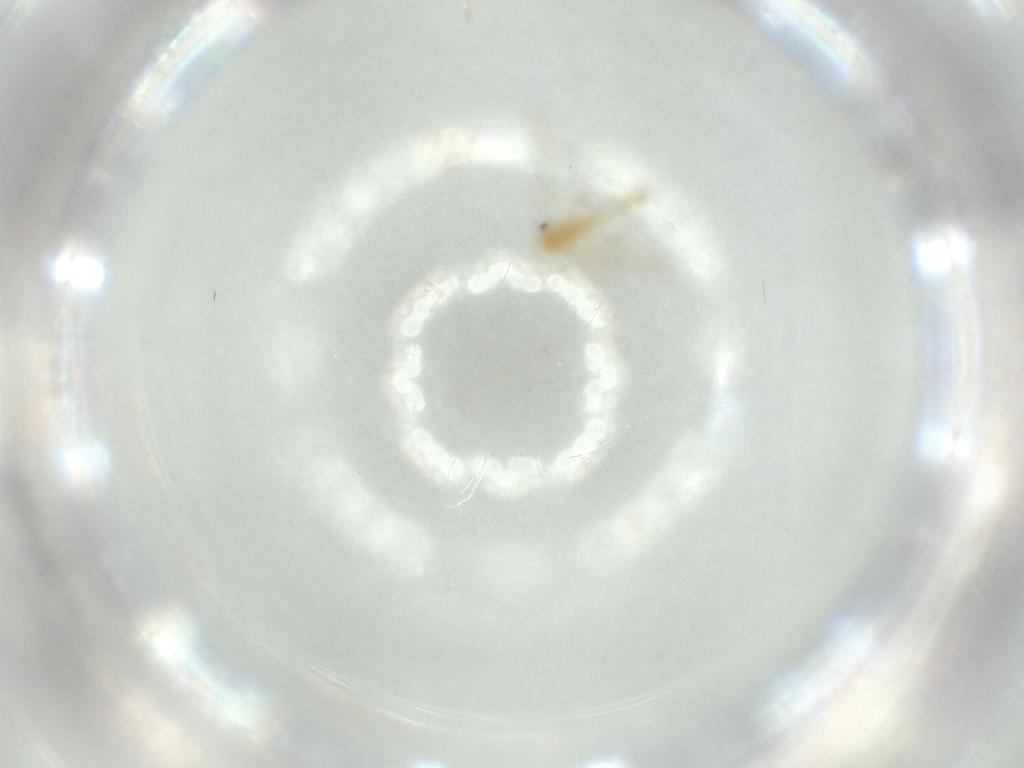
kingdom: Animalia
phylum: Arthropoda
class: Insecta
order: Diptera
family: Chironomidae
